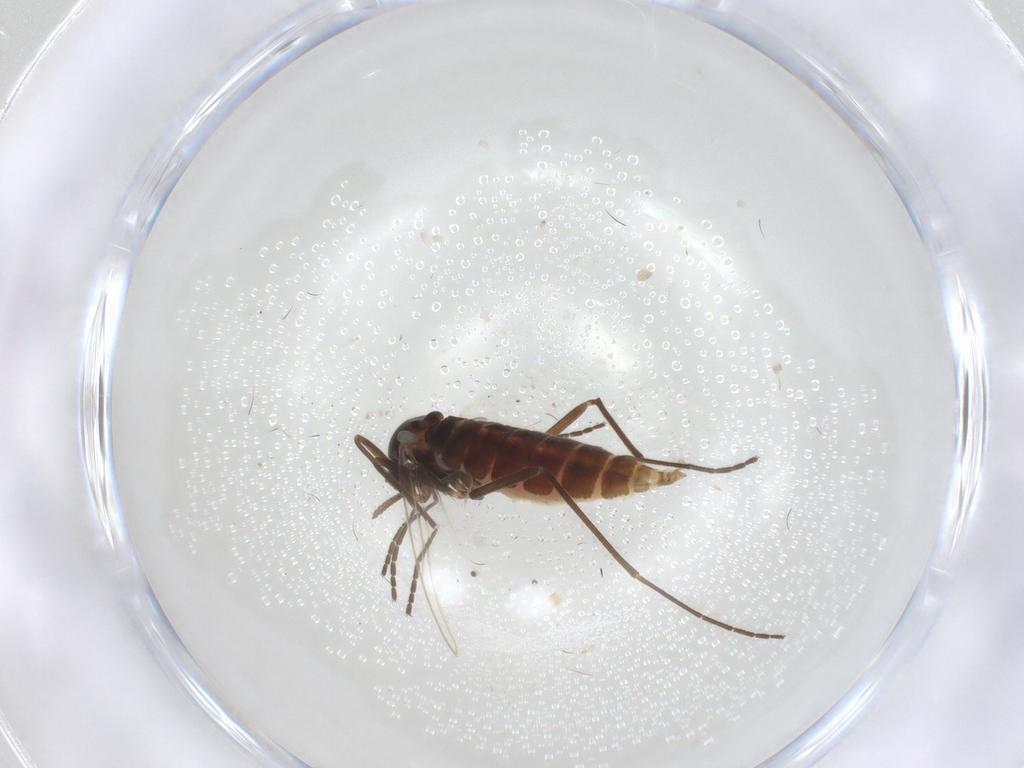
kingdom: Animalia
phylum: Arthropoda
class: Insecta
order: Diptera
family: Cecidomyiidae
